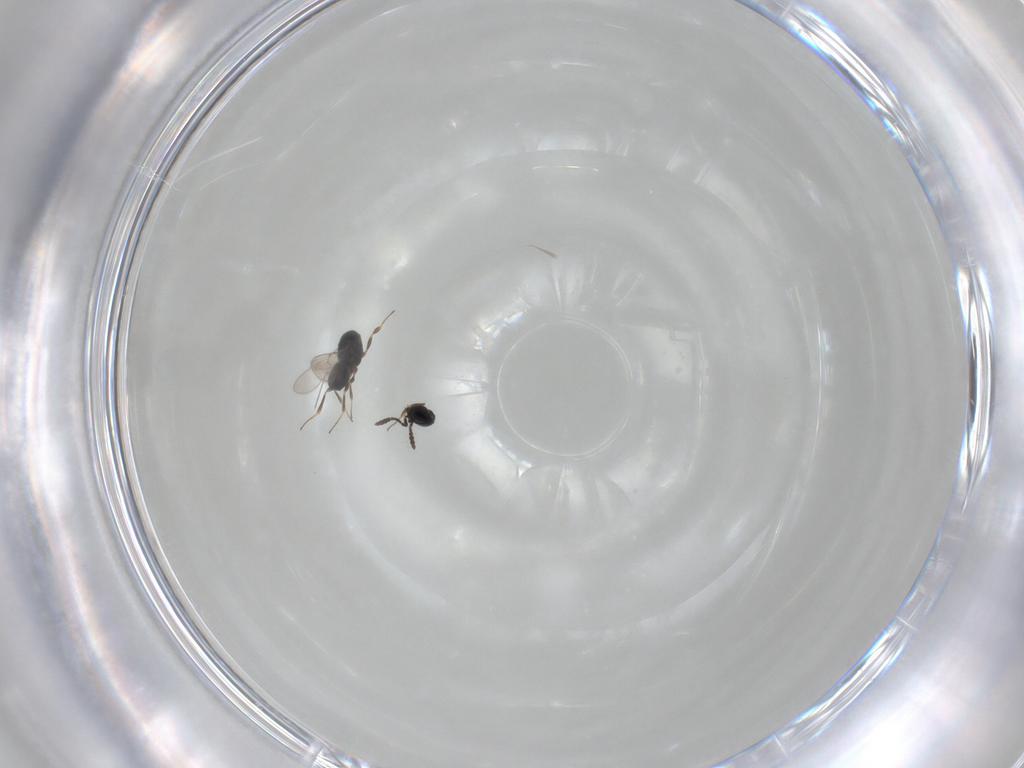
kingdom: Animalia
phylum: Arthropoda
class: Insecta
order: Hymenoptera
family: Scelionidae
